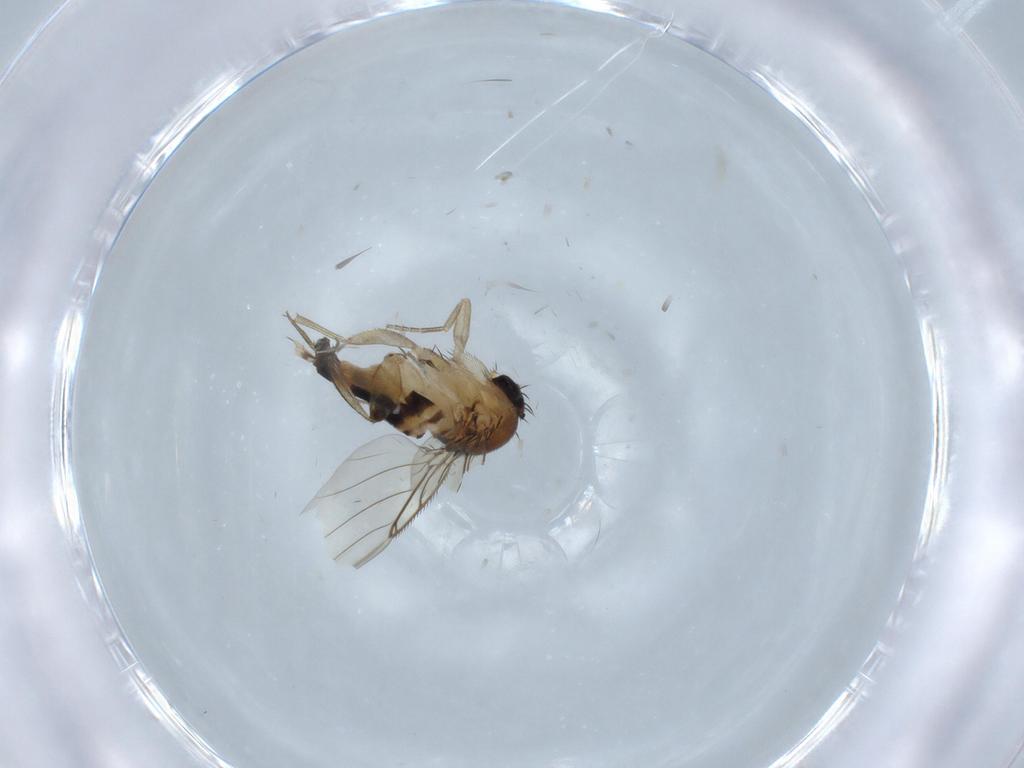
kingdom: Animalia
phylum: Arthropoda
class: Insecta
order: Diptera
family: Phoridae
